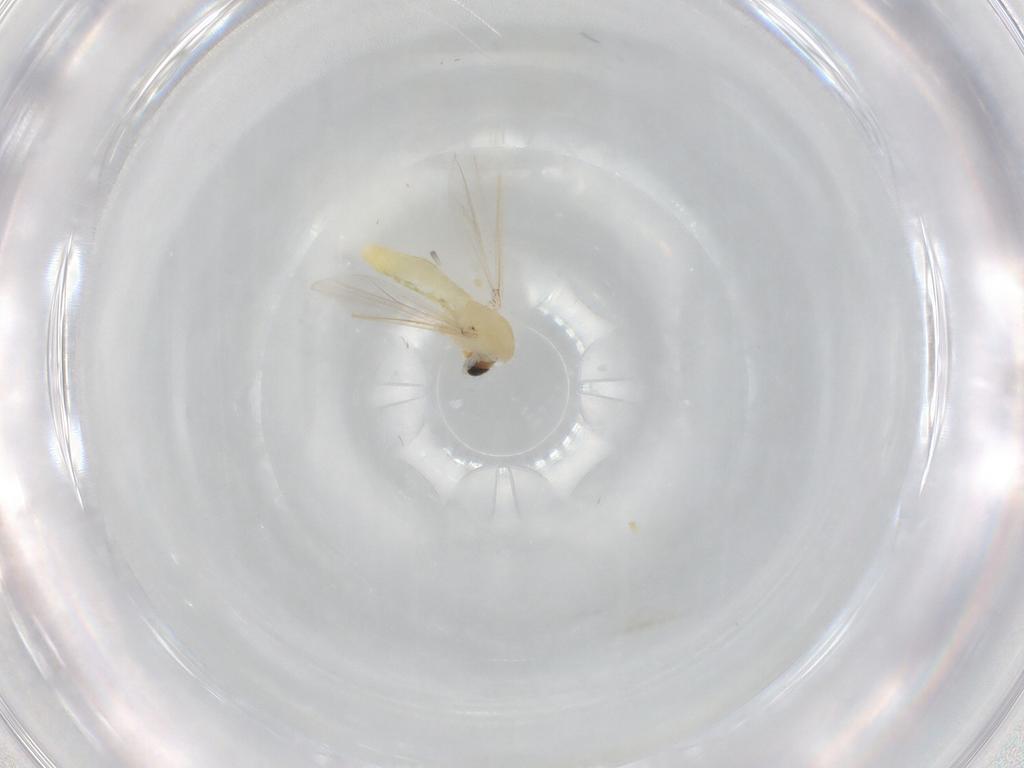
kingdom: Animalia
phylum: Arthropoda
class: Insecta
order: Diptera
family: Chironomidae
